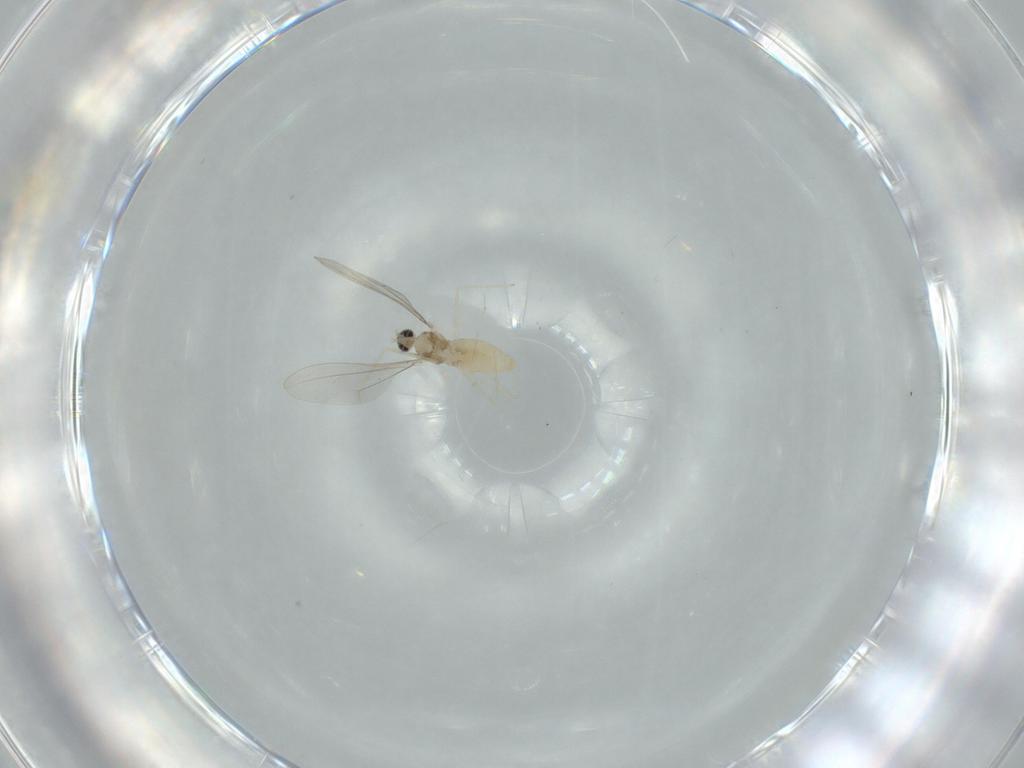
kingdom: Animalia
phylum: Arthropoda
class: Insecta
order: Diptera
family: Cecidomyiidae
